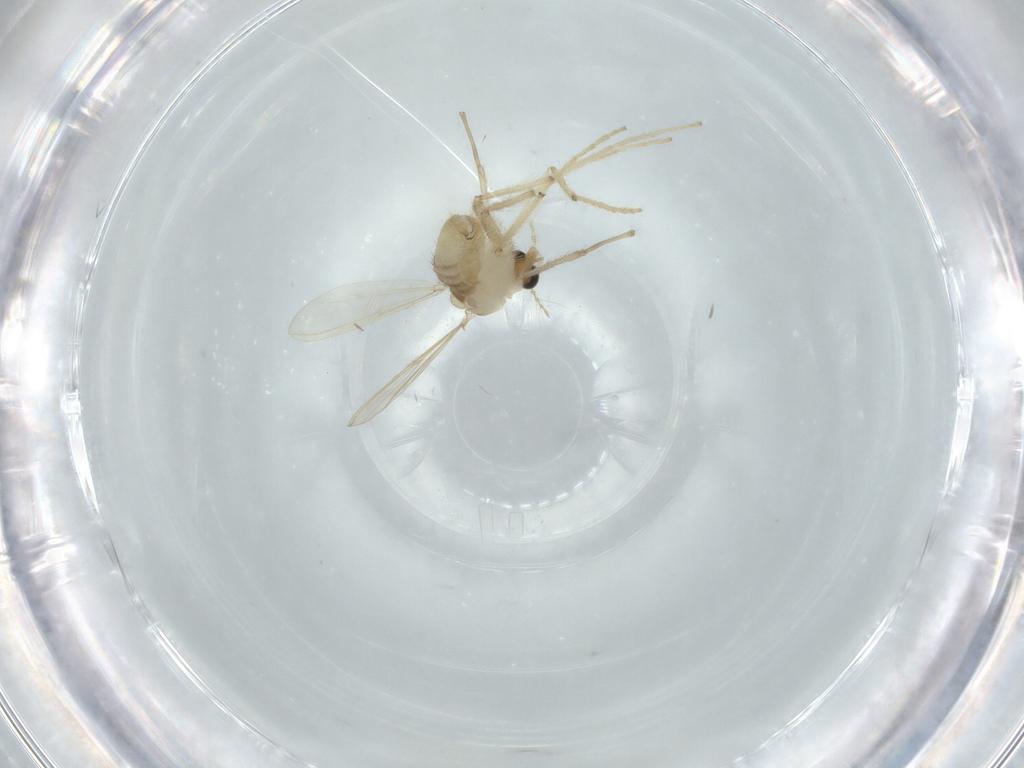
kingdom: Animalia
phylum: Arthropoda
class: Insecta
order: Diptera
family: Chironomidae
